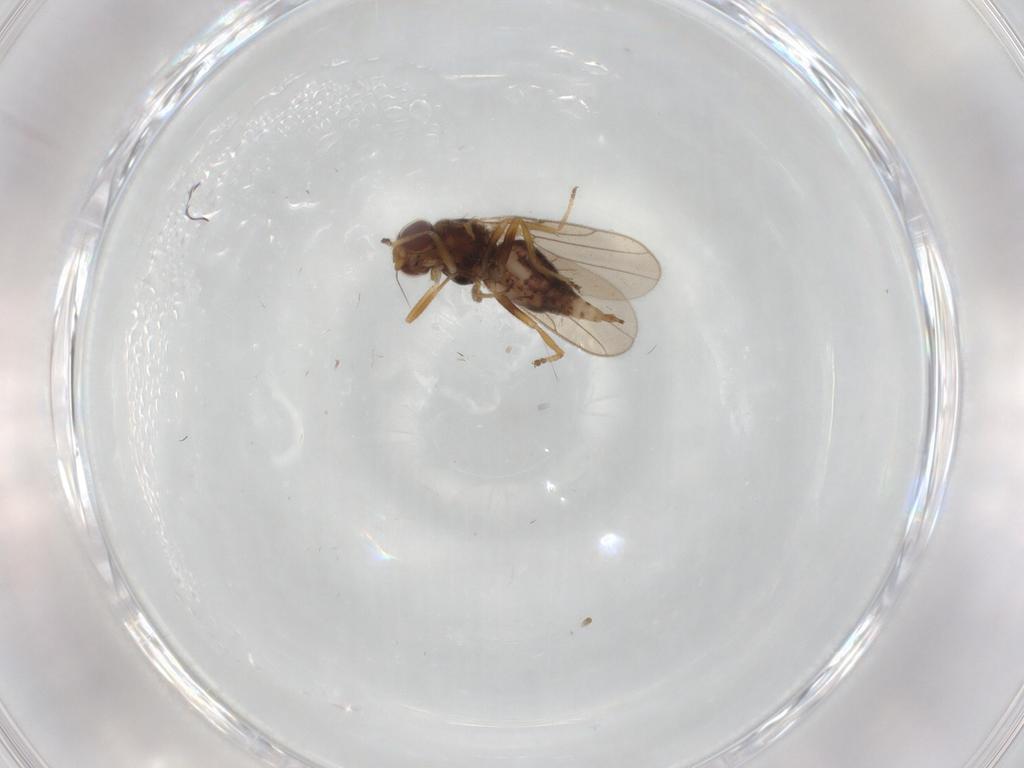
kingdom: Animalia
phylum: Arthropoda
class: Insecta
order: Diptera
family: Chloropidae
